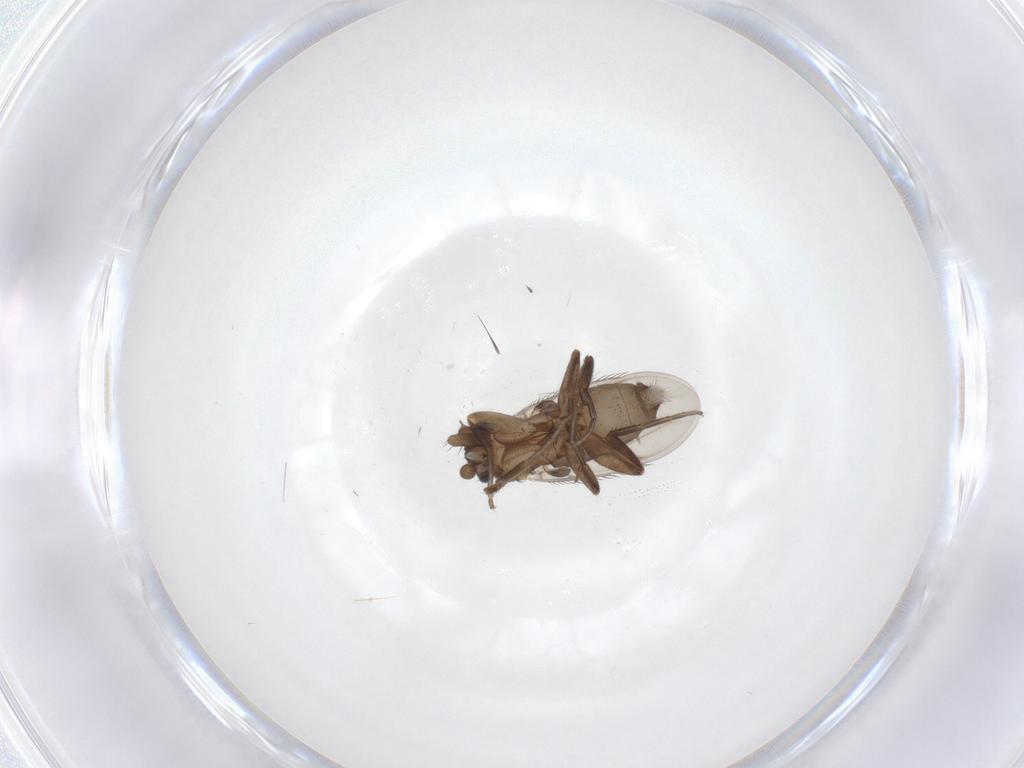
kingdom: Animalia
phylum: Arthropoda
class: Insecta
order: Diptera
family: Phoridae
